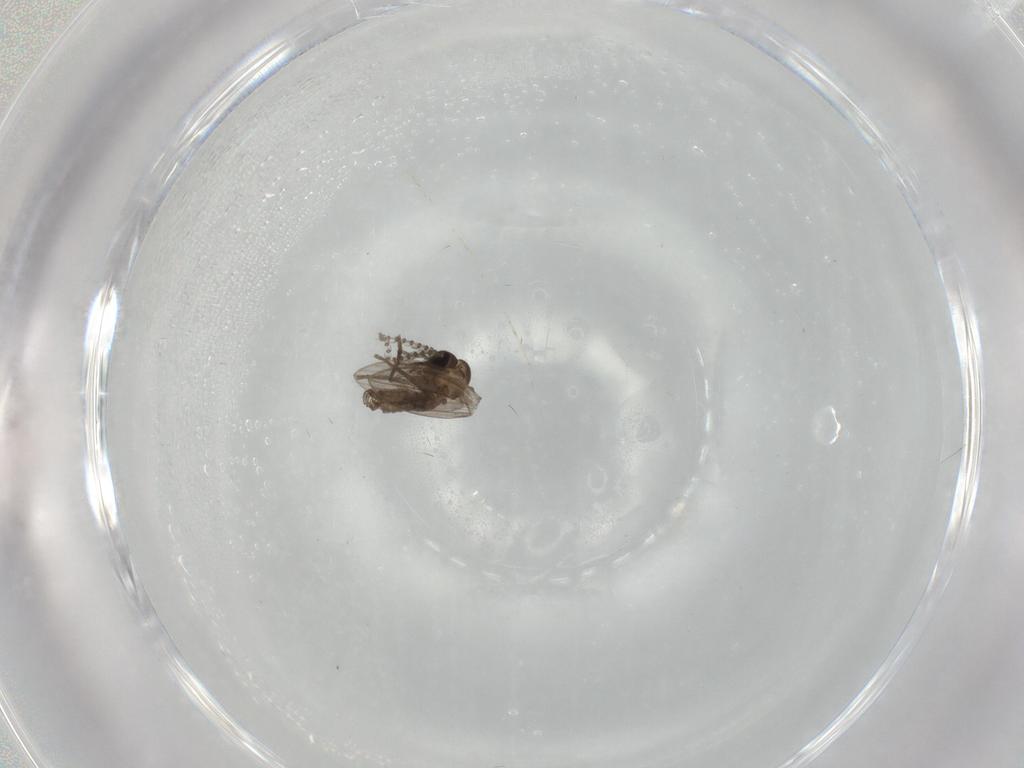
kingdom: Animalia
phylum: Arthropoda
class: Insecta
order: Diptera
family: Psychodidae
